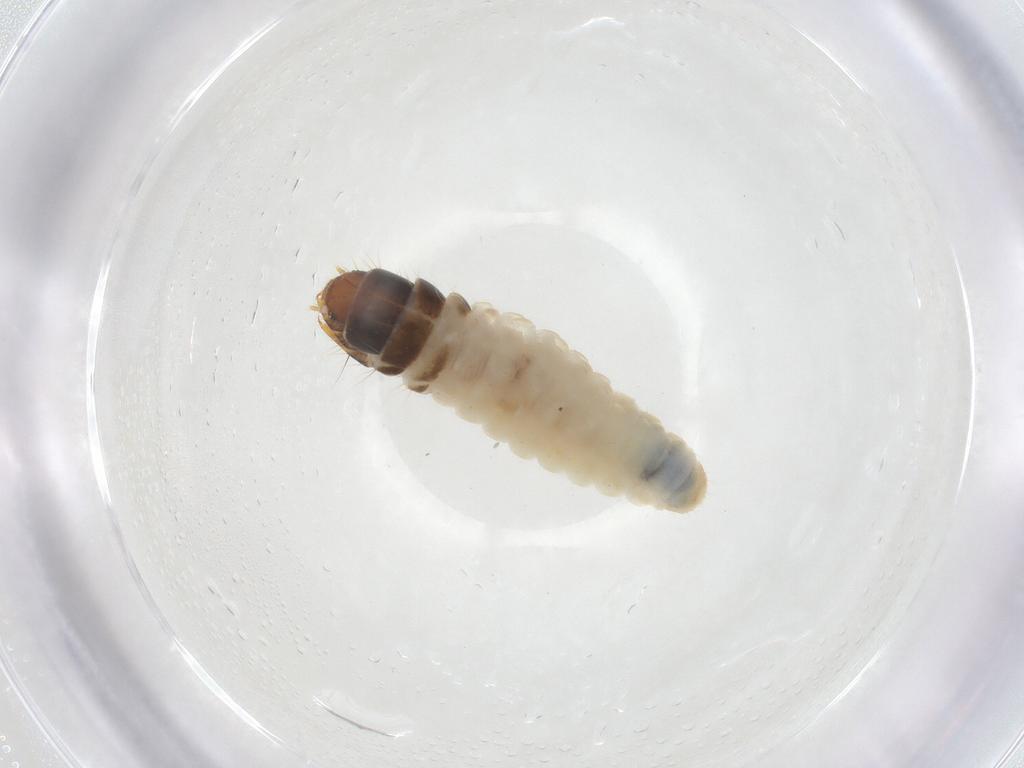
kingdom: Animalia
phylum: Arthropoda
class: Insecta
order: Lepidoptera
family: Psychidae
